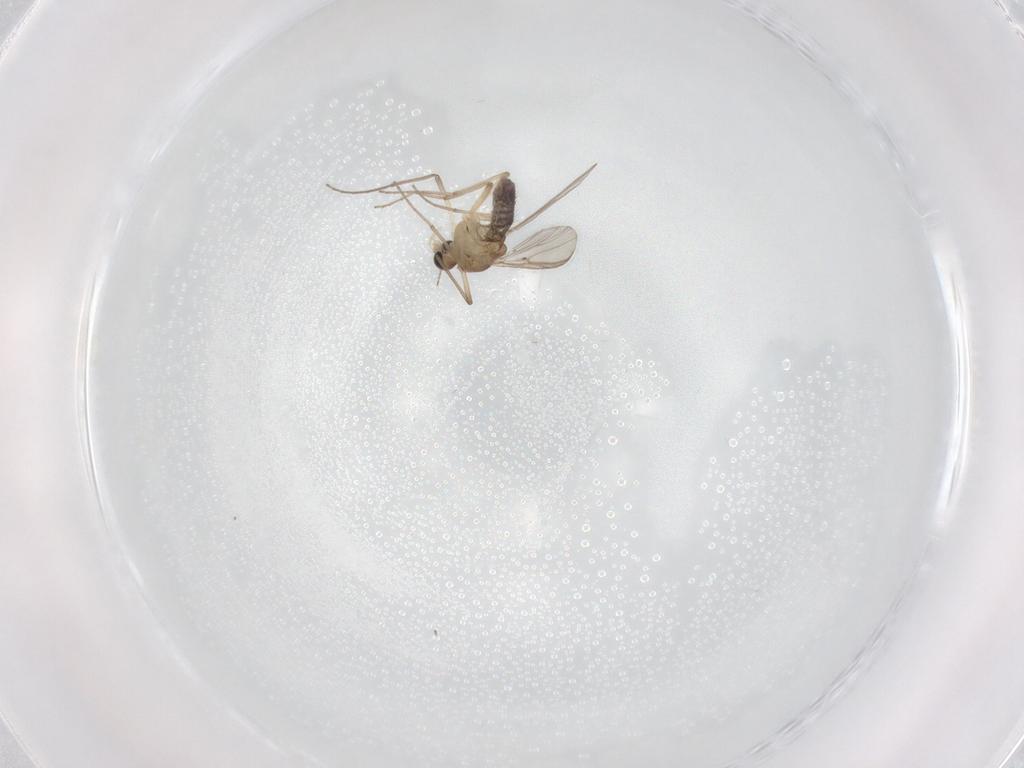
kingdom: Animalia
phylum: Arthropoda
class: Insecta
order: Diptera
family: Chironomidae
